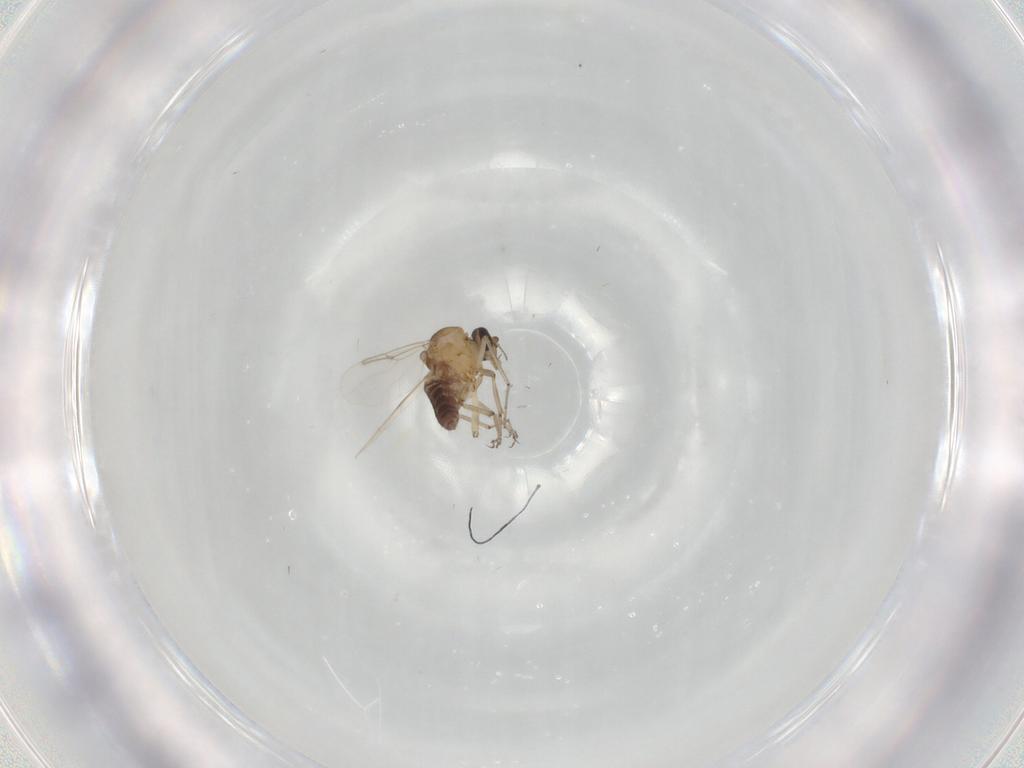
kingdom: Animalia
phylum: Arthropoda
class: Insecta
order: Diptera
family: Ceratopogonidae
